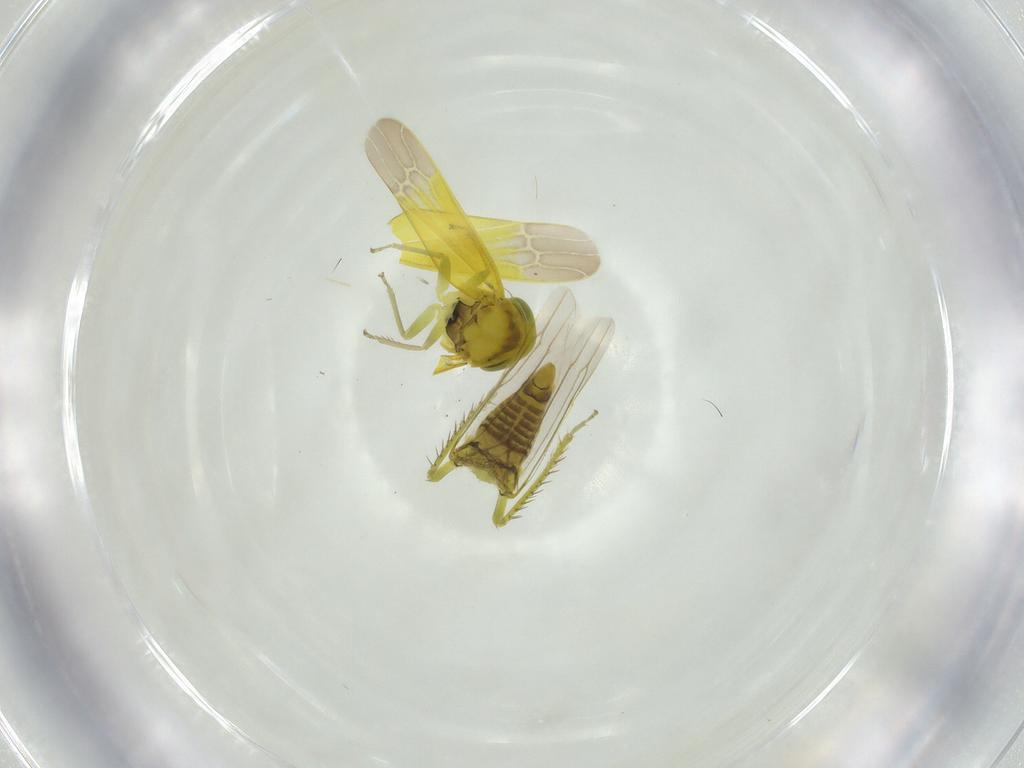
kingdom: Animalia
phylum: Arthropoda
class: Insecta
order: Hemiptera
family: Cicadellidae
